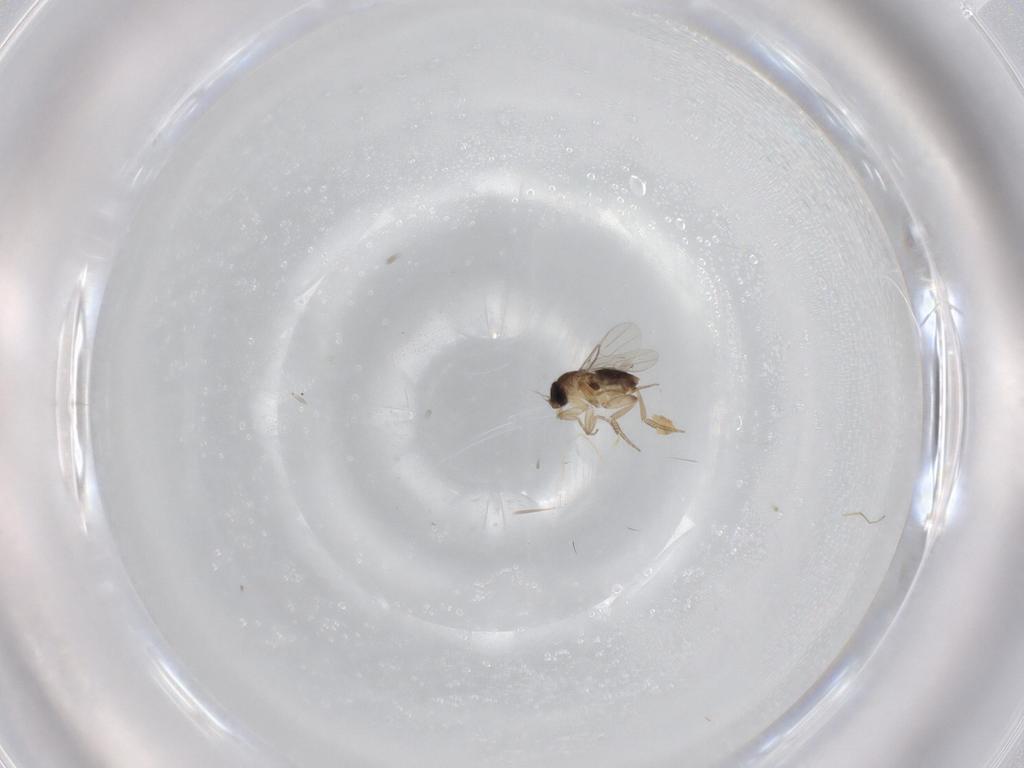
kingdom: Animalia
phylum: Arthropoda
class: Insecta
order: Diptera
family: Phoridae
